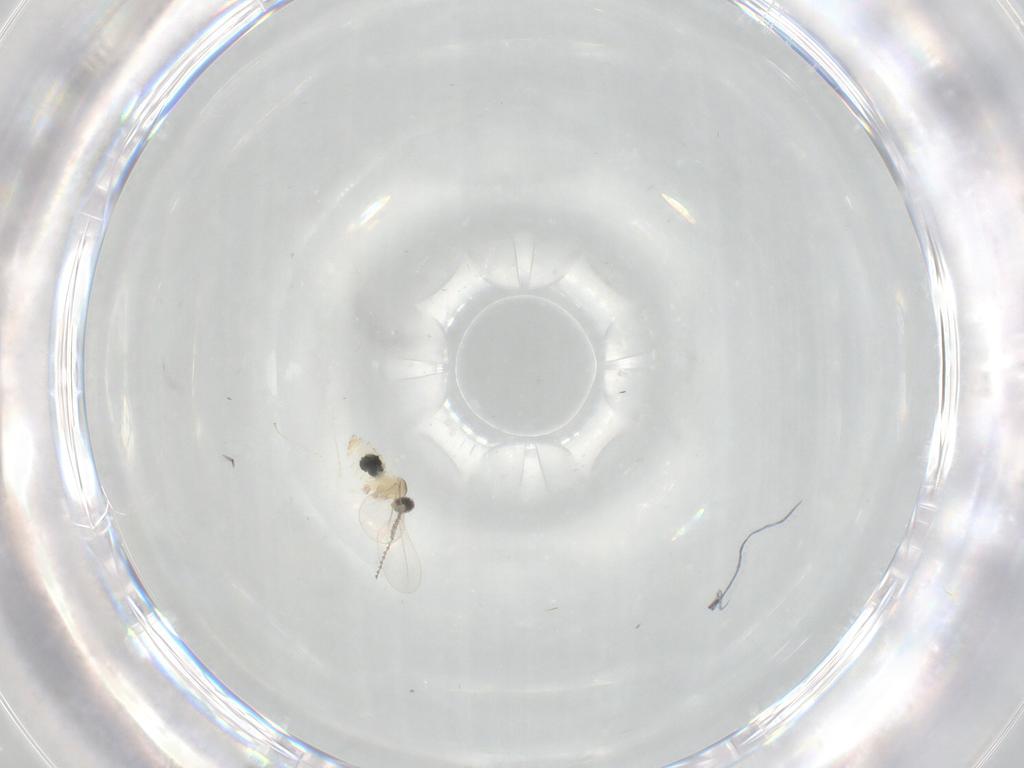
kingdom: Animalia
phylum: Arthropoda
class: Insecta
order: Diptera
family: Cecidomyiidae
